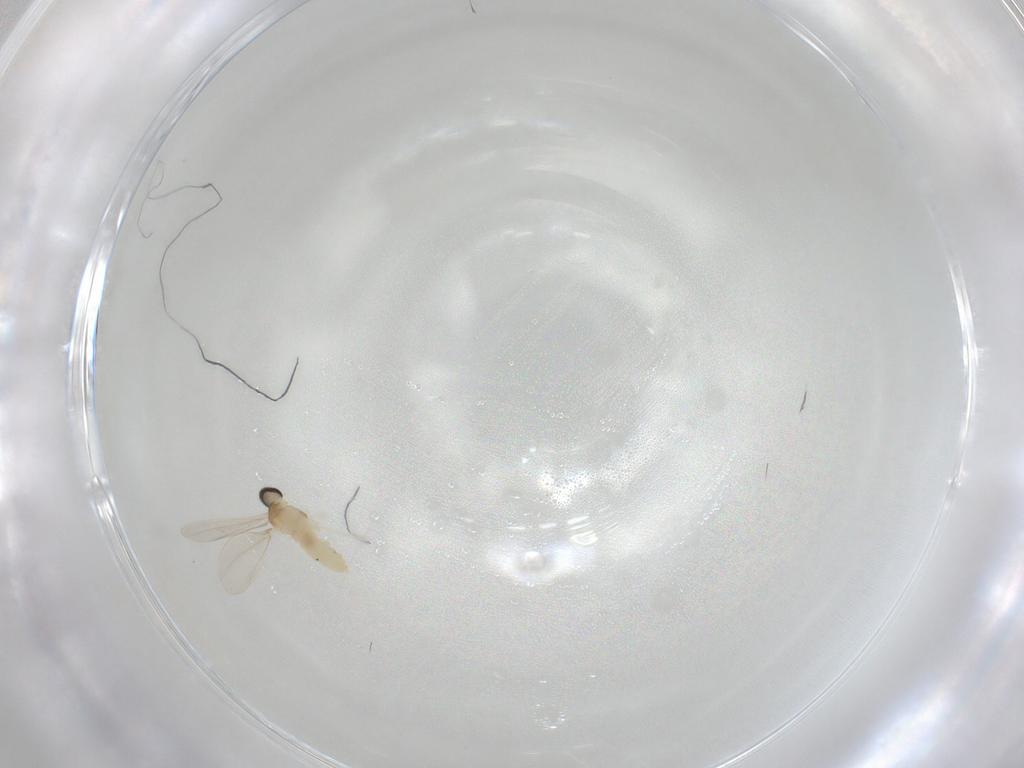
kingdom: Animalia
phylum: Arthropoda
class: Insecta
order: Diptera
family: Cecidomyiidae
